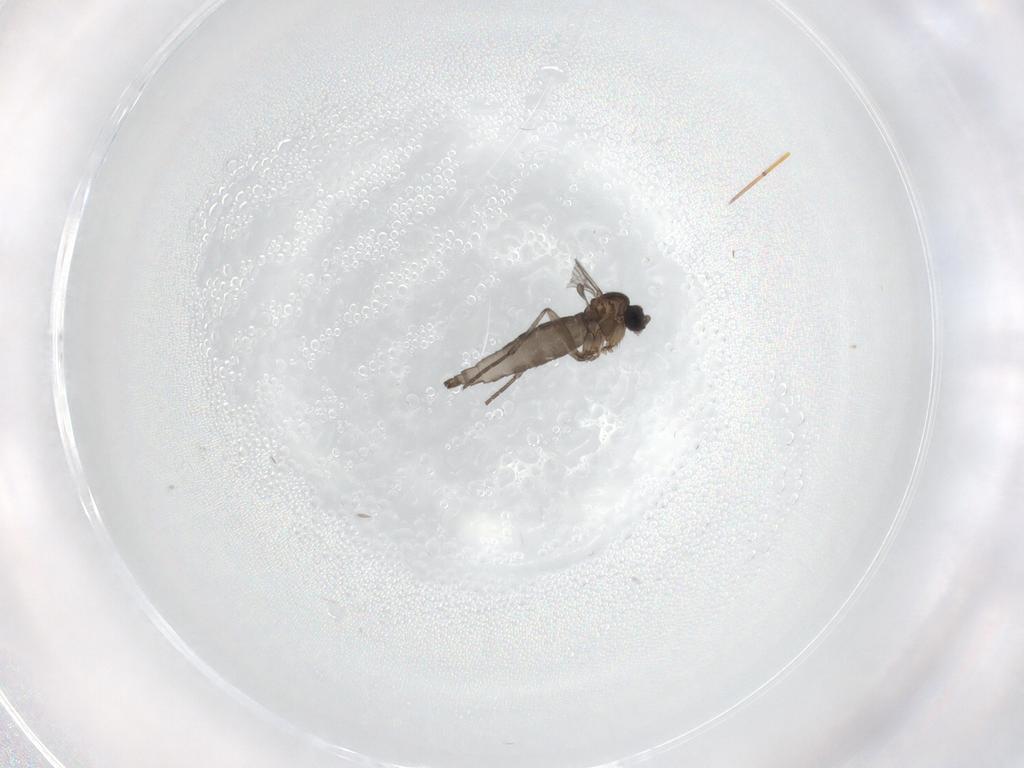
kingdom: Animalia
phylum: Arthropoda
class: Insecta
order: Diptera
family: Ceratopogonidae
